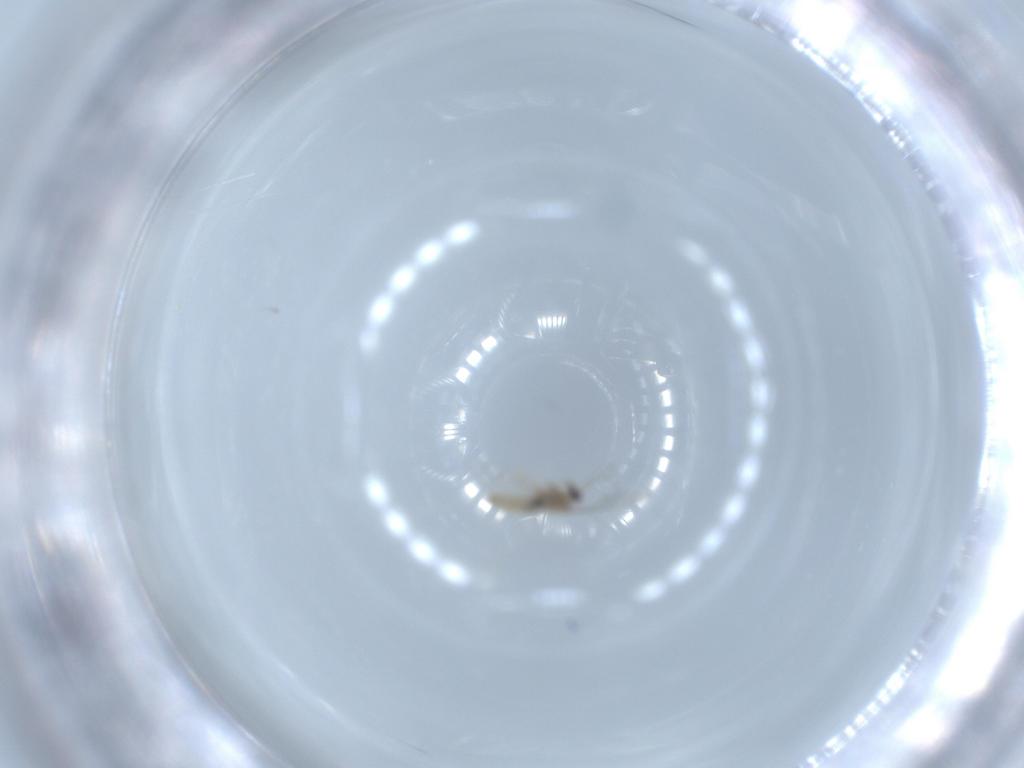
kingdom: Animalia
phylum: Arthropoda
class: Insecta
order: Diptera
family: Cecidomyiidae
